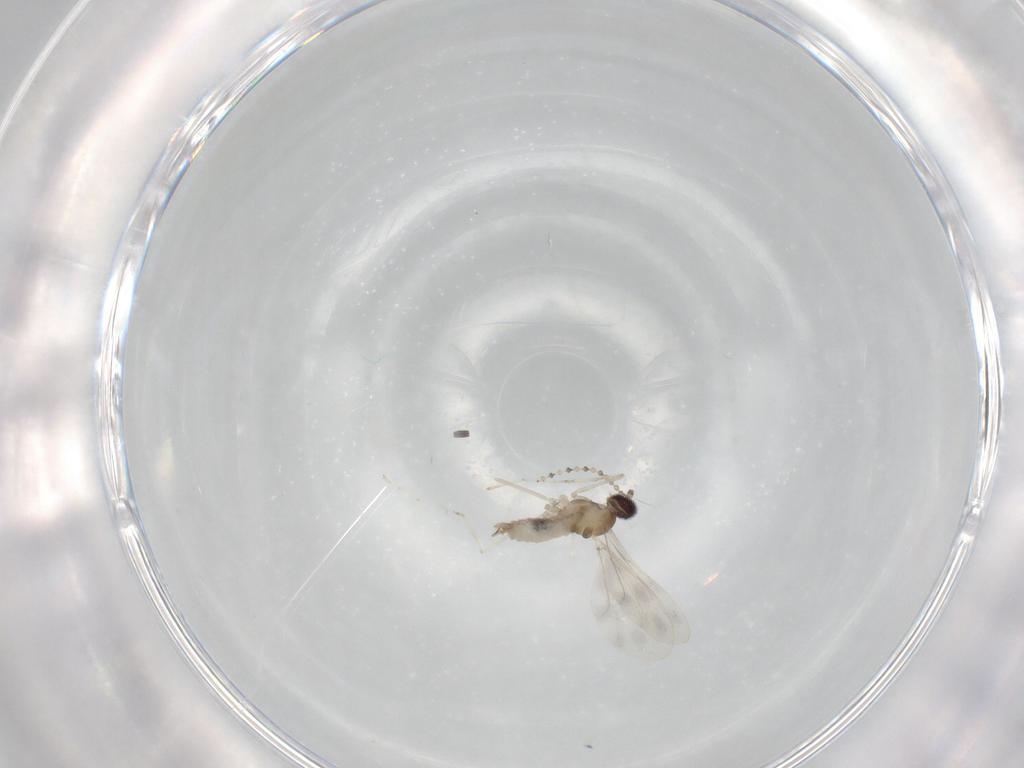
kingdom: Animalia
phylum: Arthropoda
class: Insecta
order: Diptera
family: Cecidomyiidae
